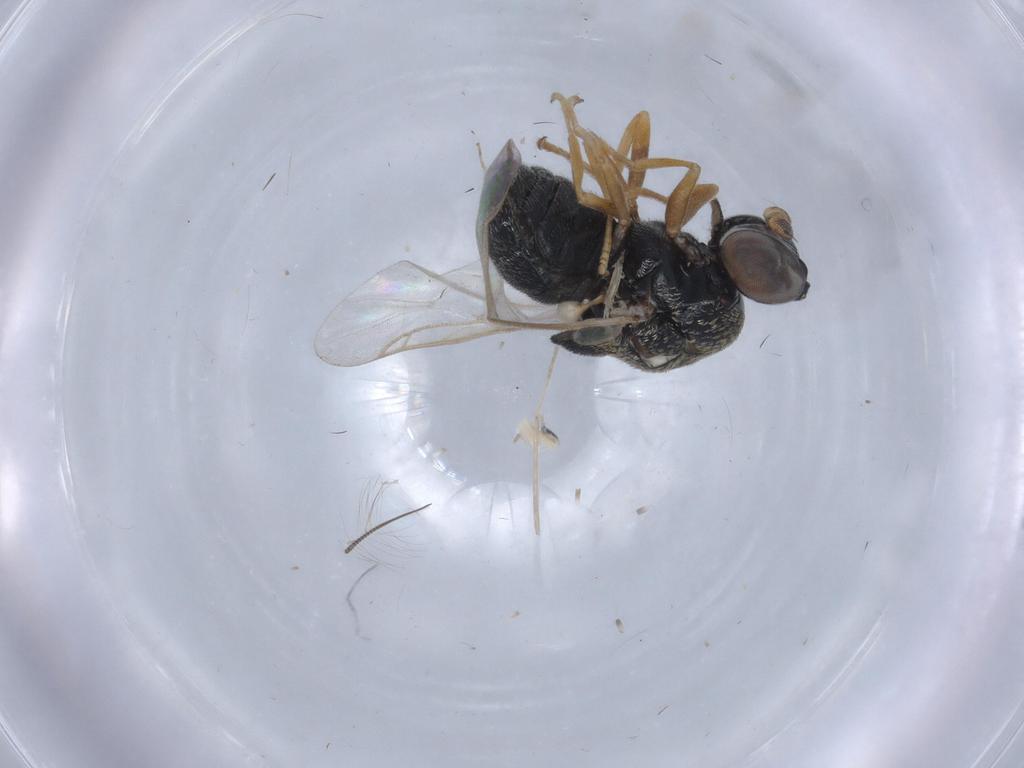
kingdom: Animalia
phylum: Arthropoda
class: Insecta
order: Diptera
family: Stratiomyidae
